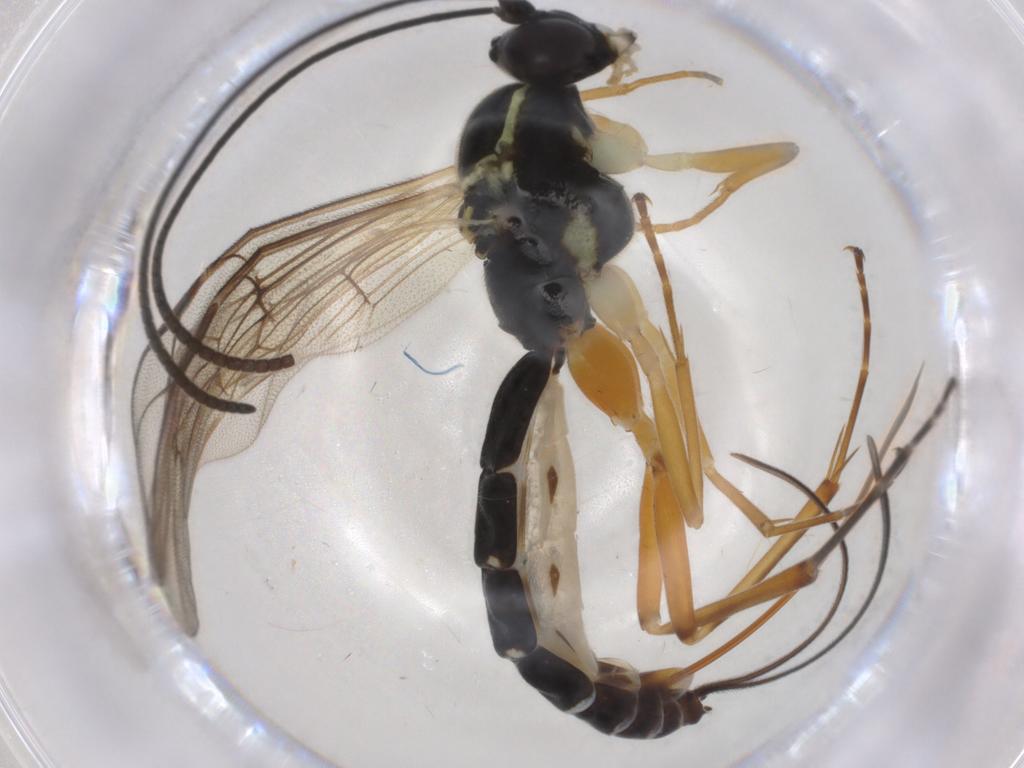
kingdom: Animalia
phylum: Arthropoda
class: Insecta
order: Hymenoptera
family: Ichneumonidae
